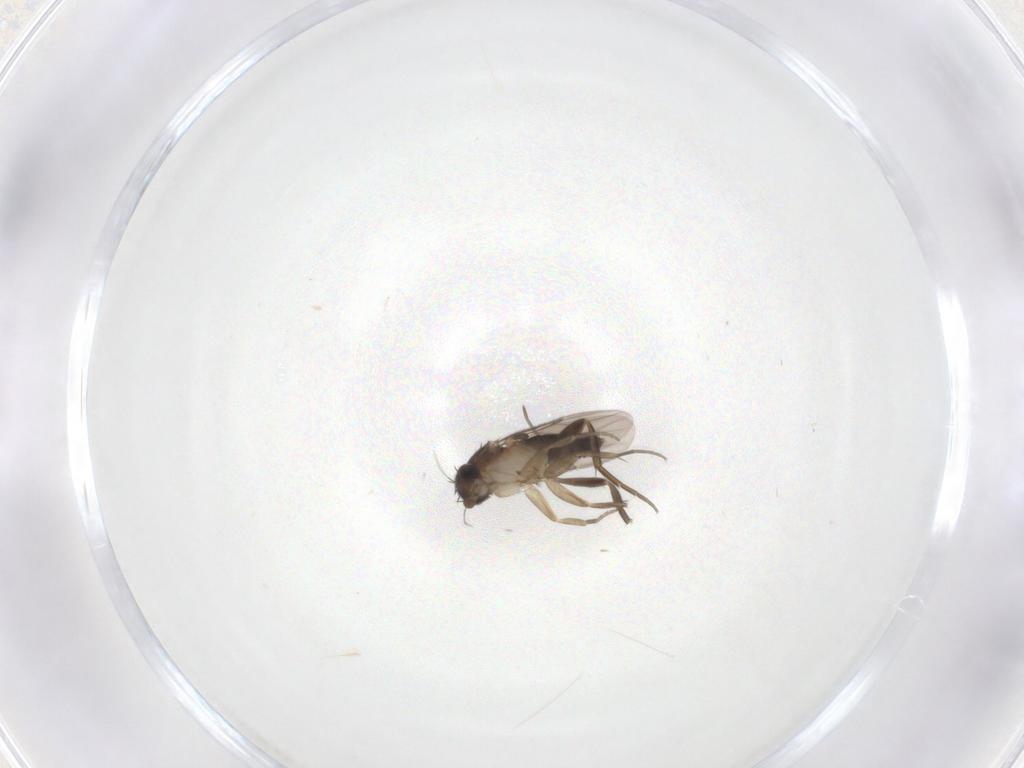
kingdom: Animalia
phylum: Arthropoda
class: Insecta
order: Diptera
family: Phoridae
